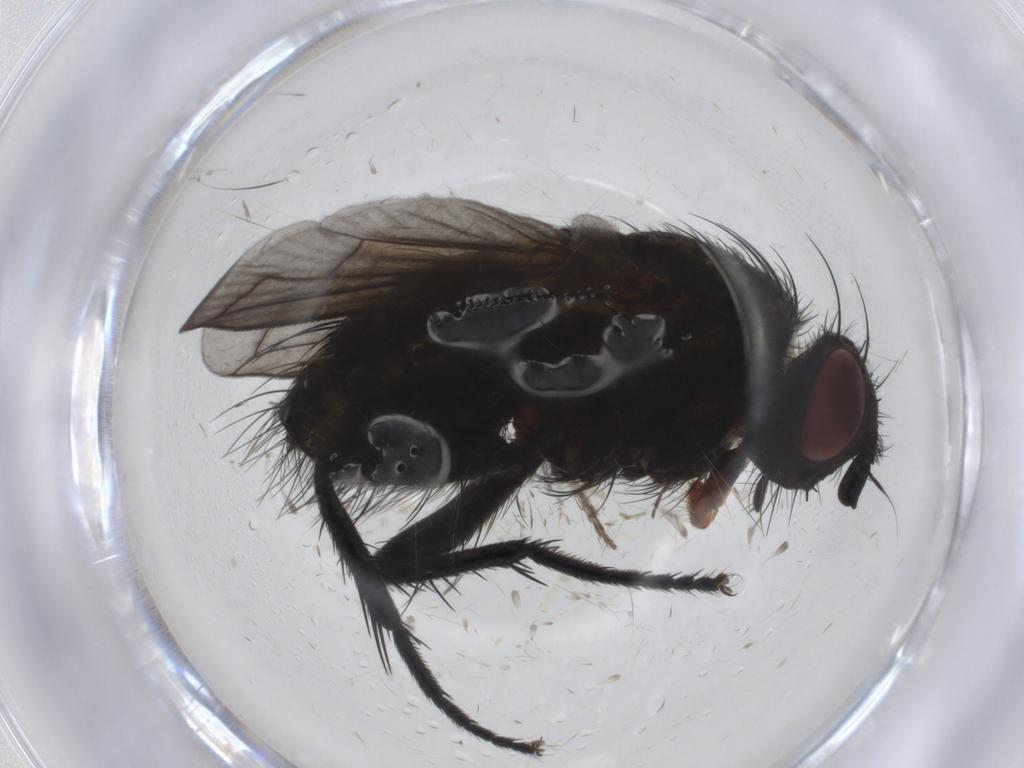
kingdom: Animalia
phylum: Arthropoda
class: Insecta
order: Diptera
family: Tachinidae
